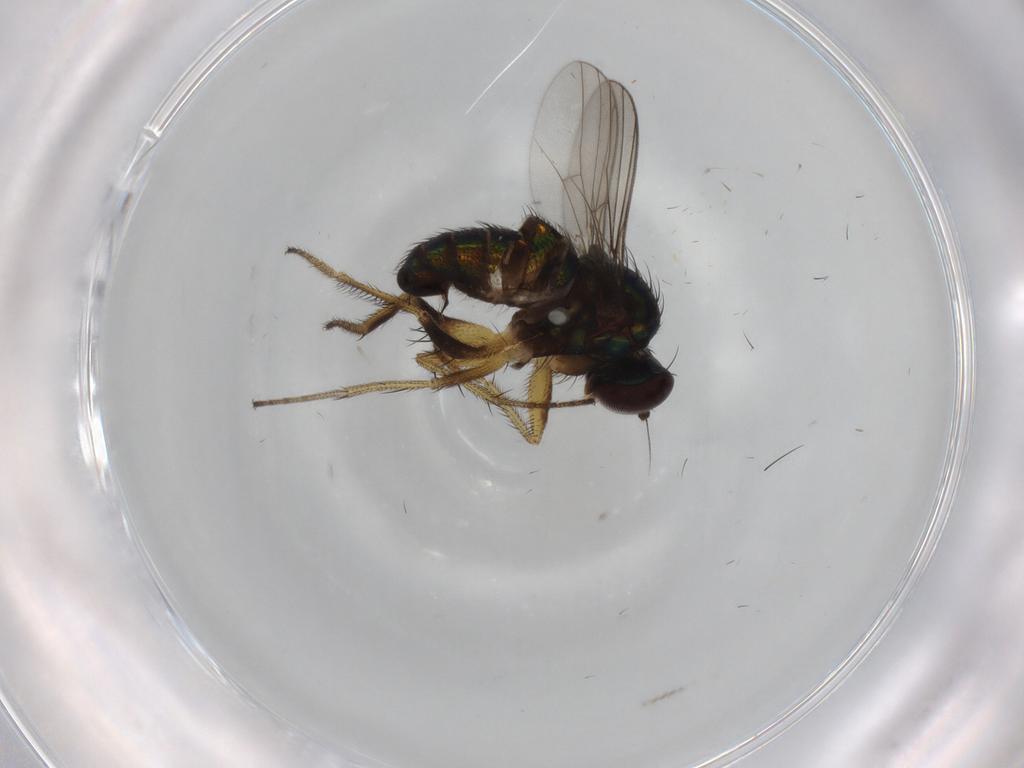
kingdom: Animalia
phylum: Arthropoda
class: Insecta
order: Diptera
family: Dolichopodidae
